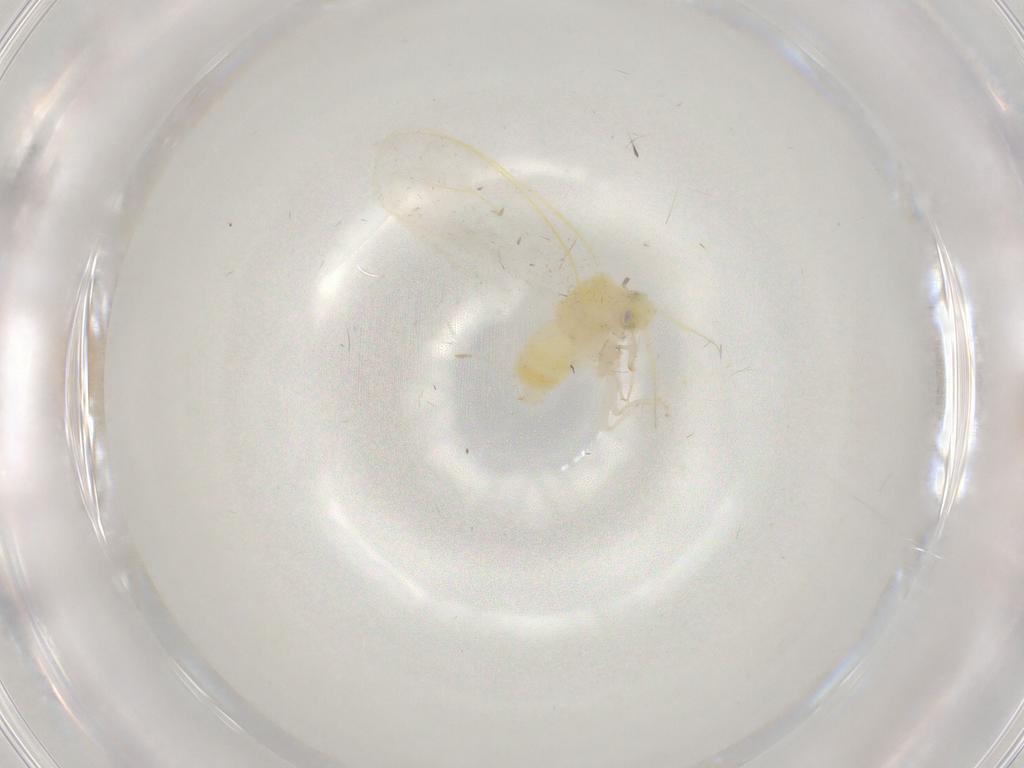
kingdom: Animalia
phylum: Arthropoda
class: Insecta
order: Hemiptera
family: Aleyrodidae
